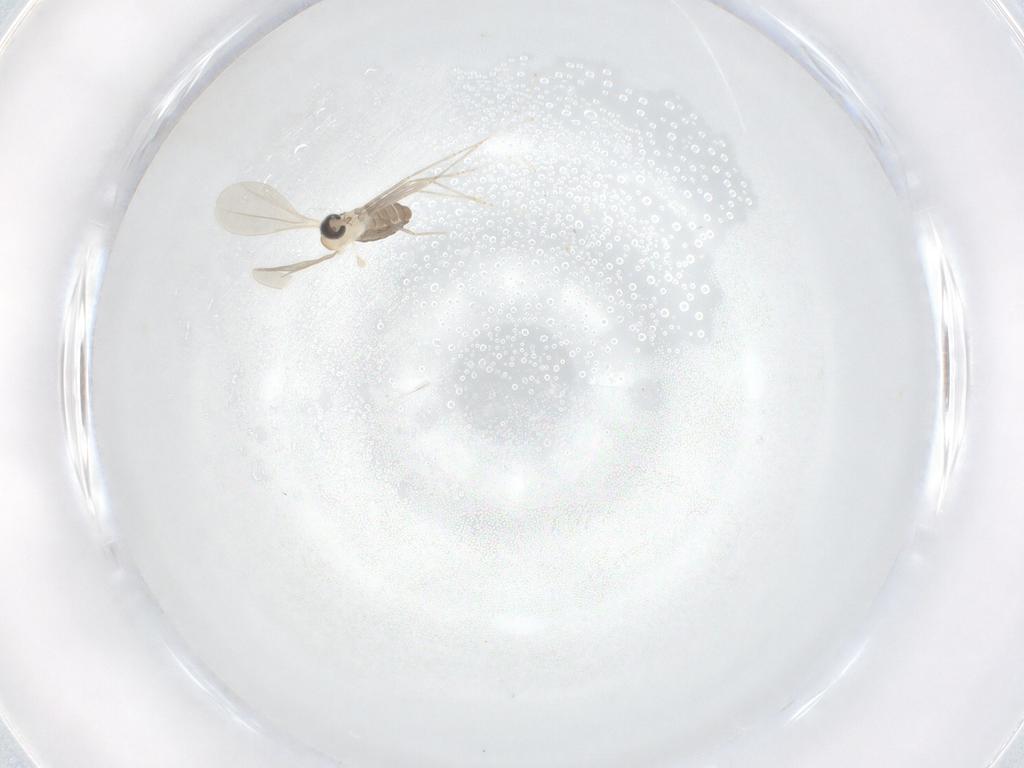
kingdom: Animalia
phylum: Arthropoda
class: Insecta
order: Diptera
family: Cecidomyiidae
